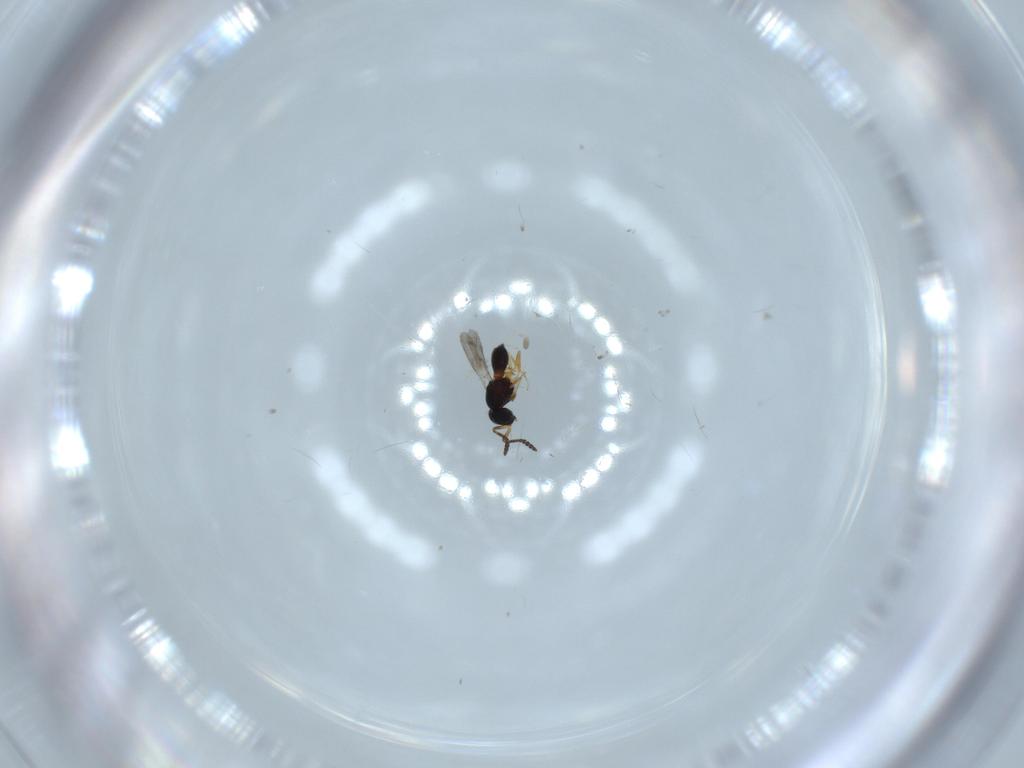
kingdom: Animalia
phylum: Arthropoda
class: Insecta
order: Hymenoptera
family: Scelionidae
